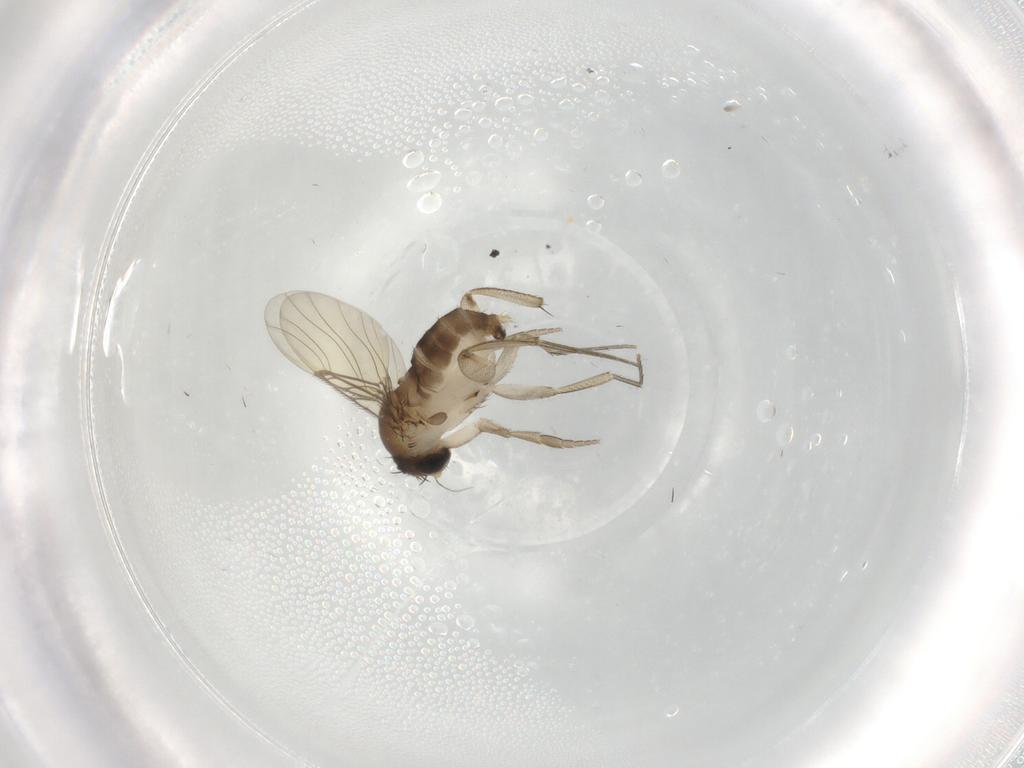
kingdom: Animalia
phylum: Arthropoda
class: Insecta
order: Diptera
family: Phoridae
